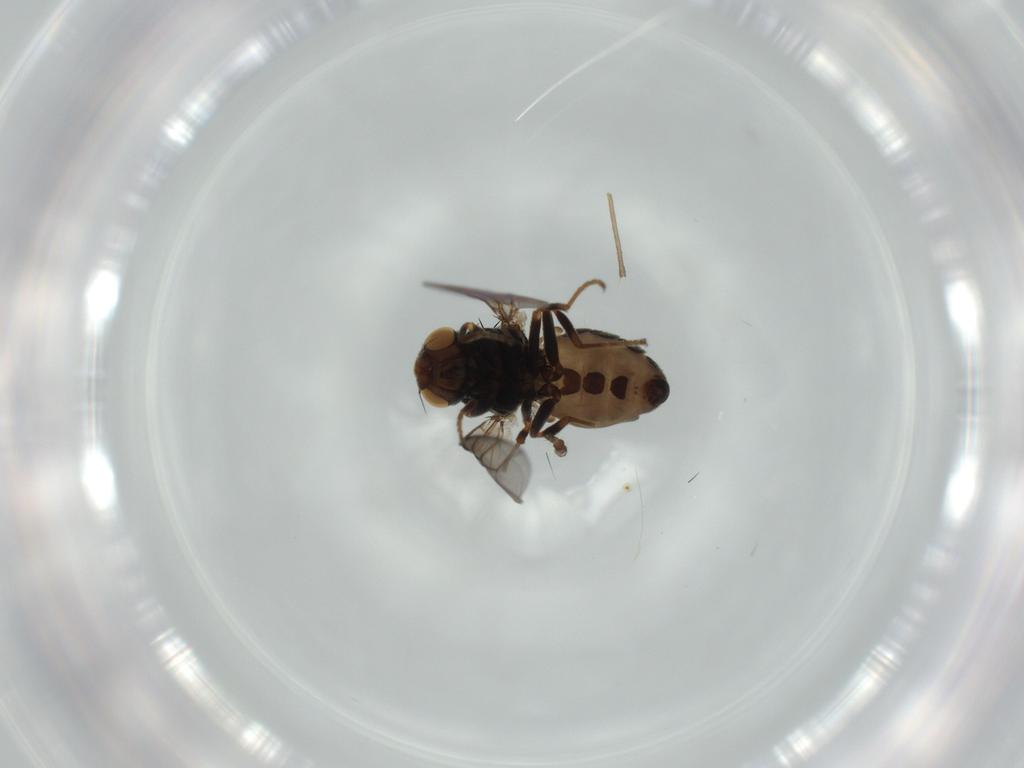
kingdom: Animalia
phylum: Arthropoda
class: Insecta
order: Diptera
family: Chloropidae
